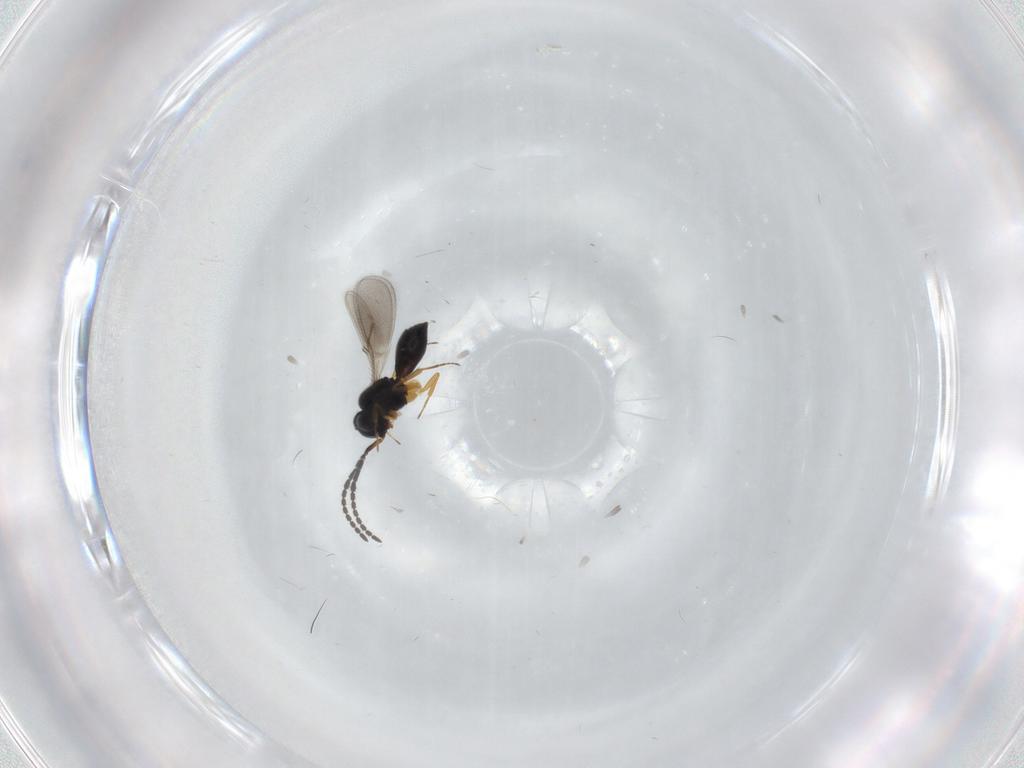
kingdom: Animalia
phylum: Arthropoda
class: Insecta
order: Hymenoptera
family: Scelionidae
